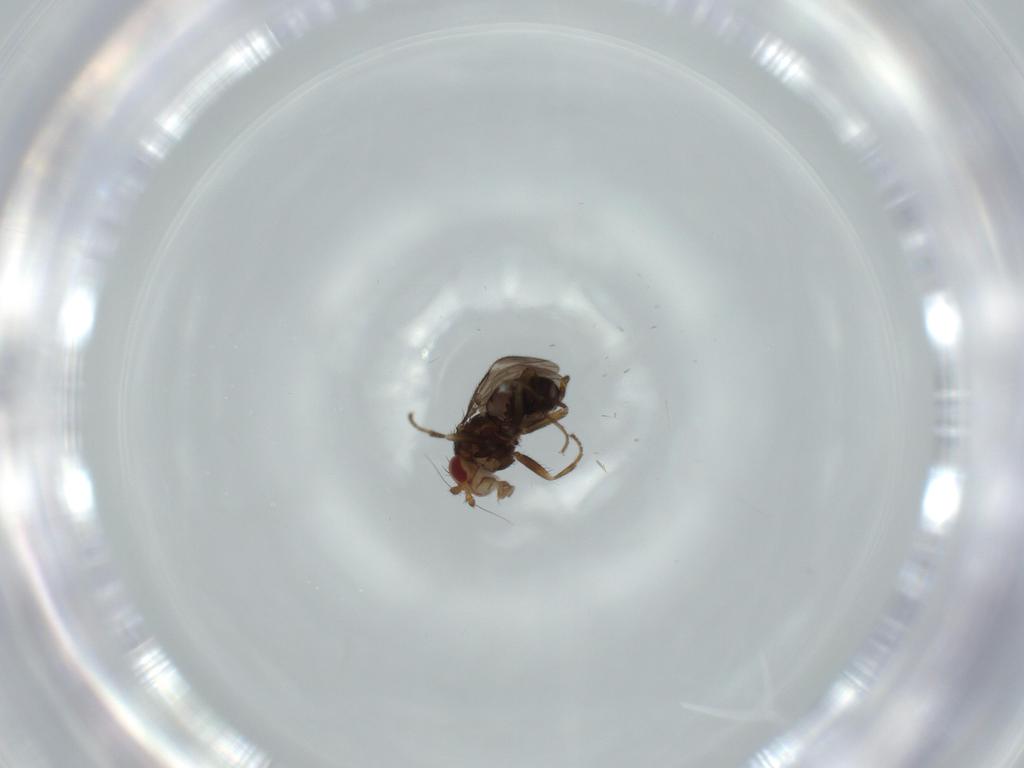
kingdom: Animalia
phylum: Arthropoda
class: Insecta
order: Diptera
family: Sphaeroceridae
